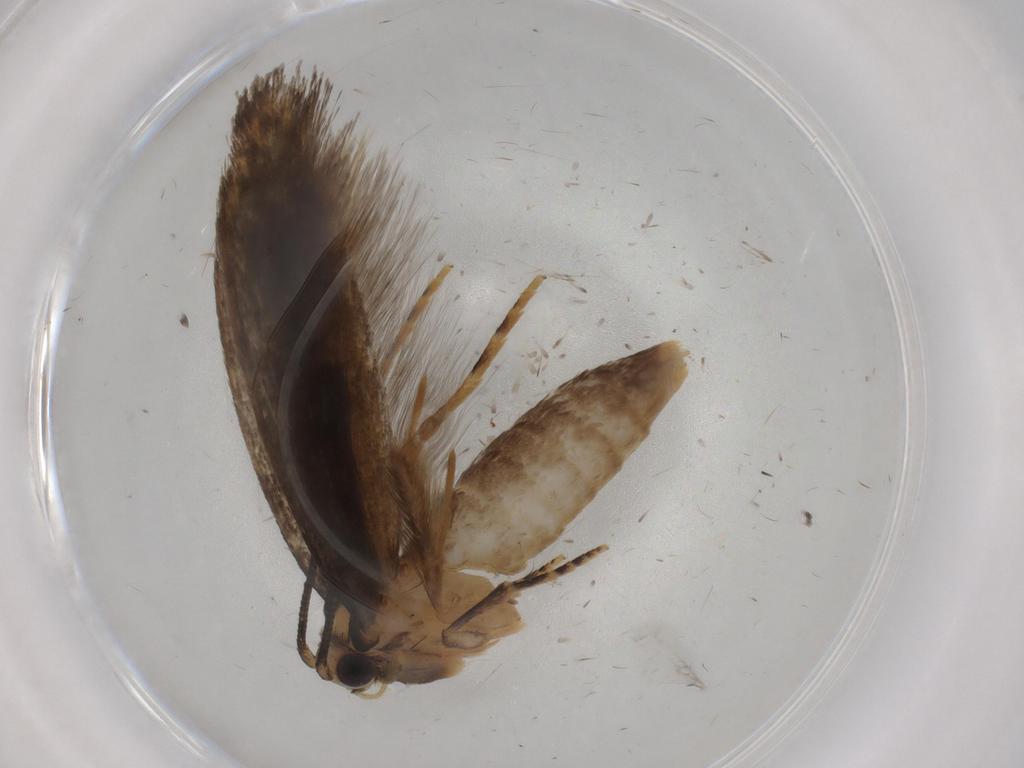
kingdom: Animalia
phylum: Arthropoda
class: Insecta
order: Lepidoptera
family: Tineidae
